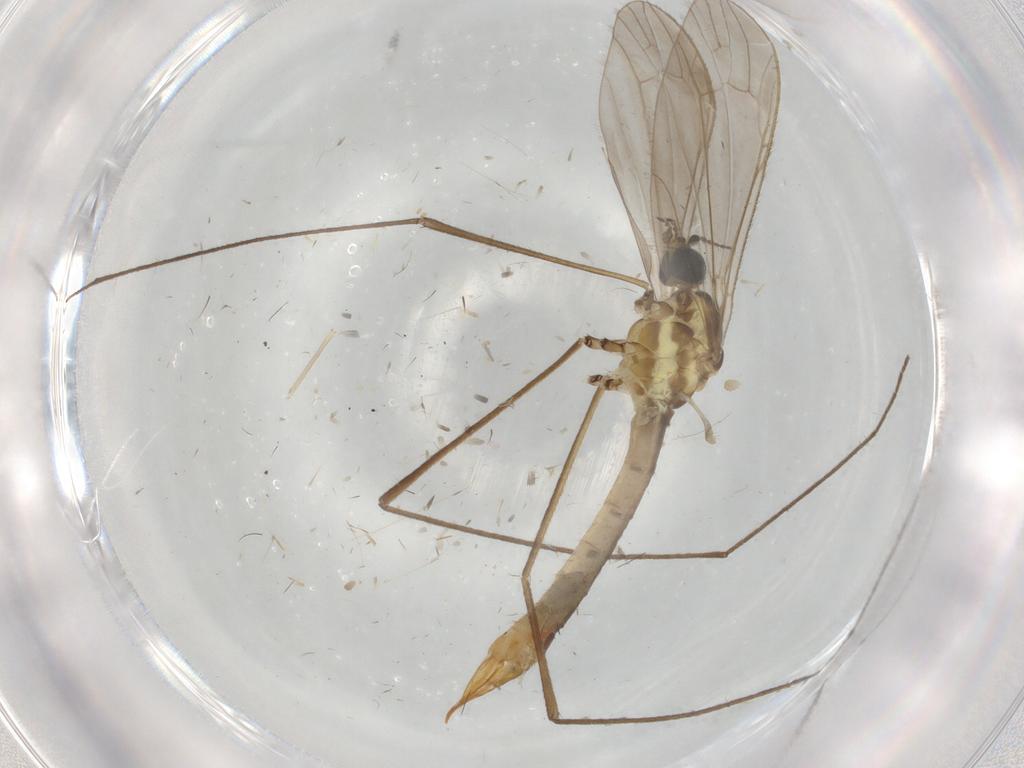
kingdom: Animalia
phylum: Arthropoda
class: Insecta
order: Diptera
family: Limoniidae
